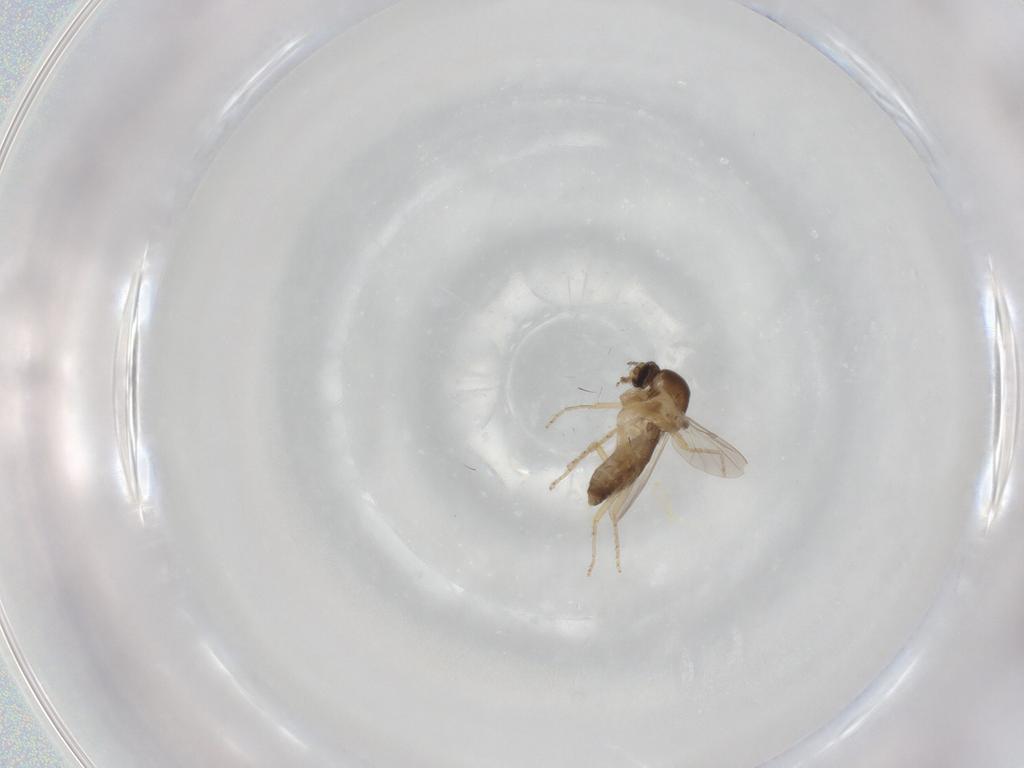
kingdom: Animalia
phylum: Arthropoda
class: Insecta
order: Diptera
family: Ceratopogonidae
